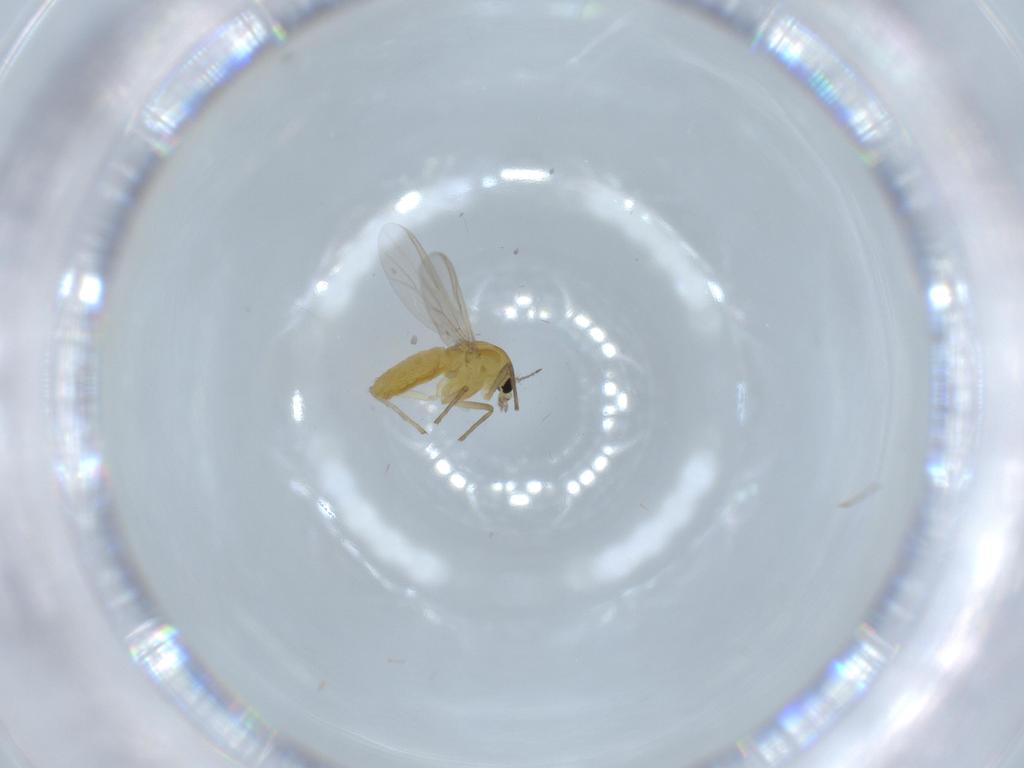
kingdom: Animalia
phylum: Arthropoda
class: Insecta
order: Diptera
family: Chironomidae
